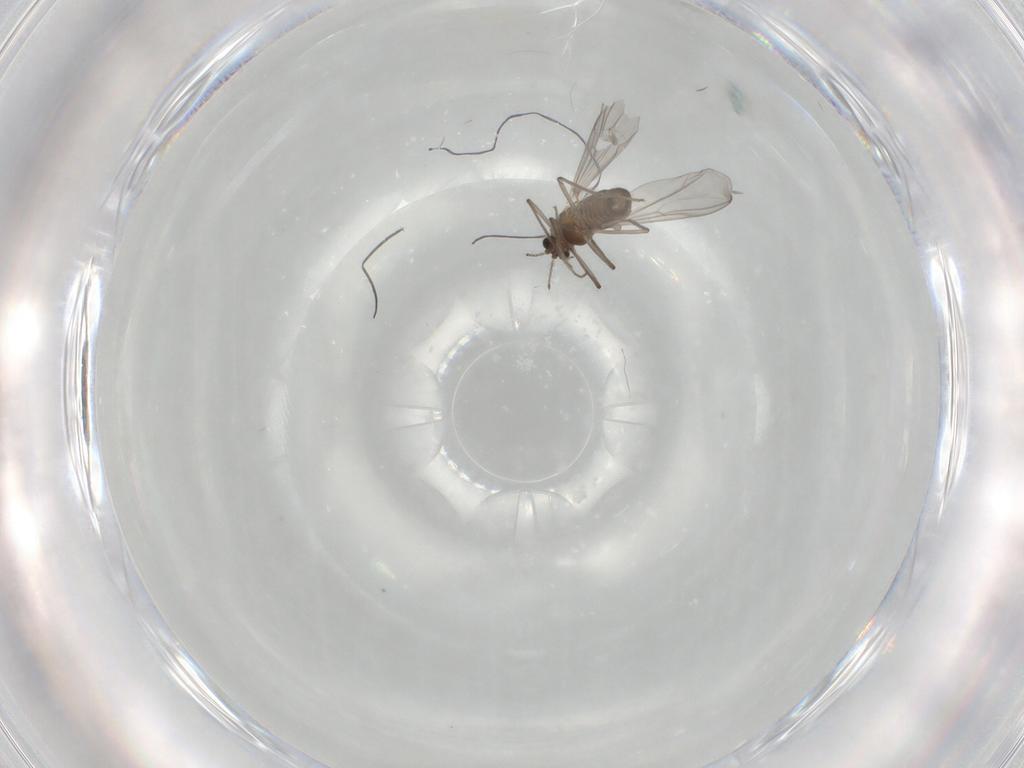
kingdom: Animalia
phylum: Arthropoda
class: Insecta
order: Diptera
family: Chironomidae
